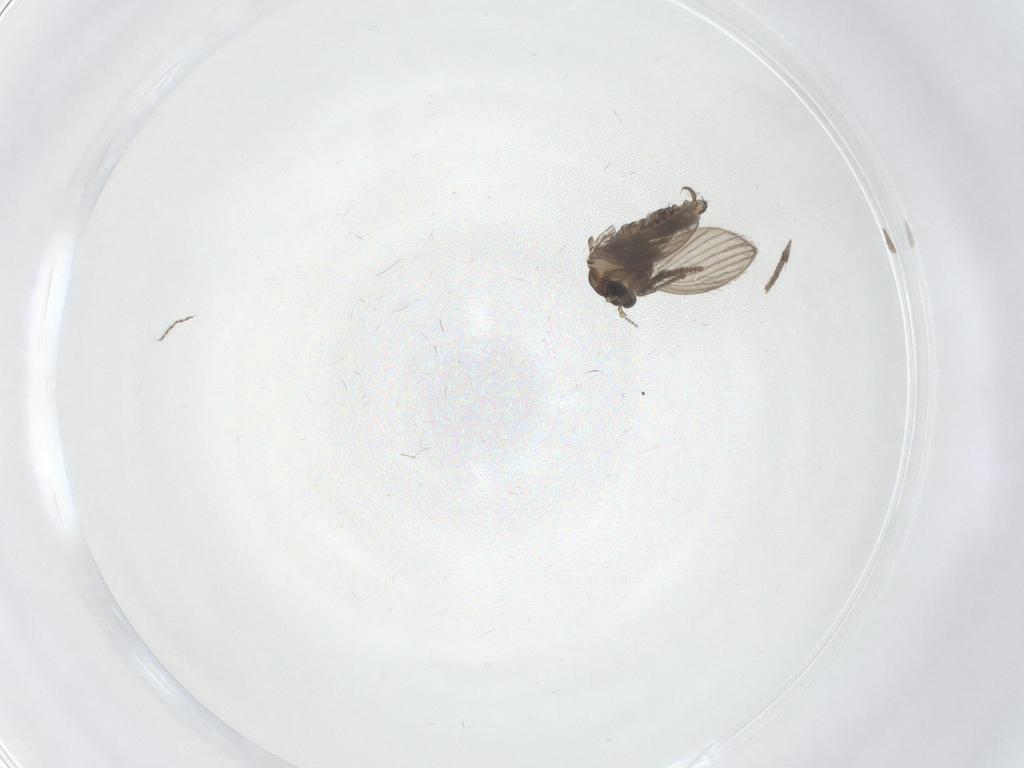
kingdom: Animalia
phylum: Arthropoda
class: Insecta
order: Diptera
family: Psychodidae
